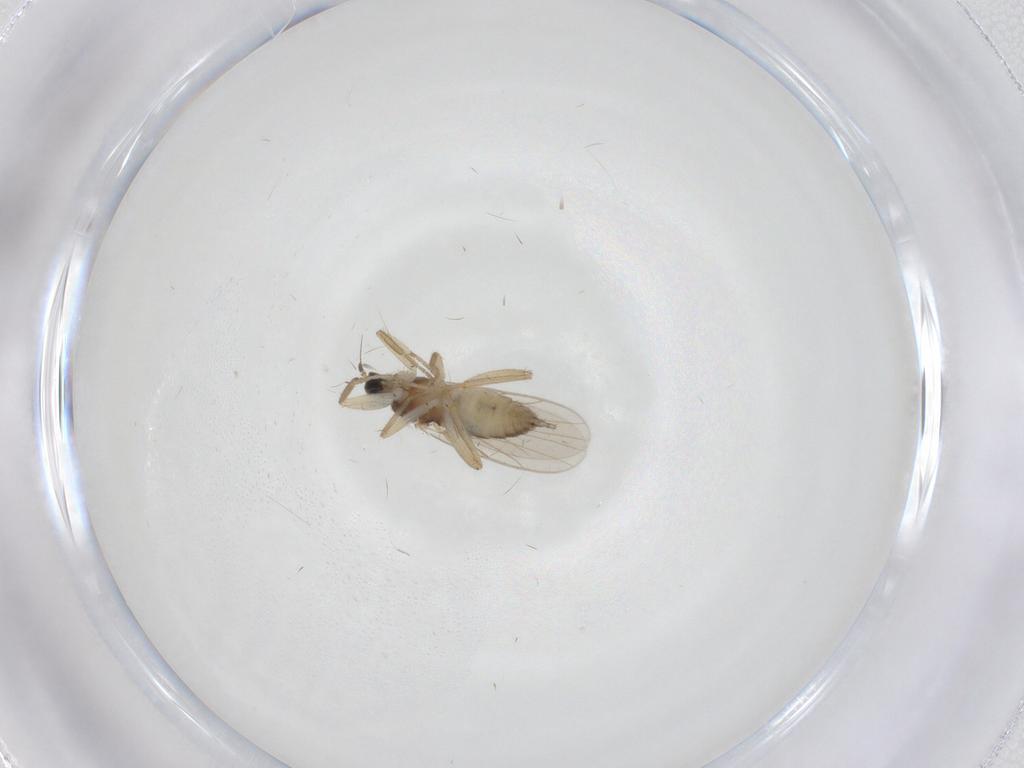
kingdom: Animalia
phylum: Arthropoda
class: Insecta
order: Diptera
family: Hybotidae
